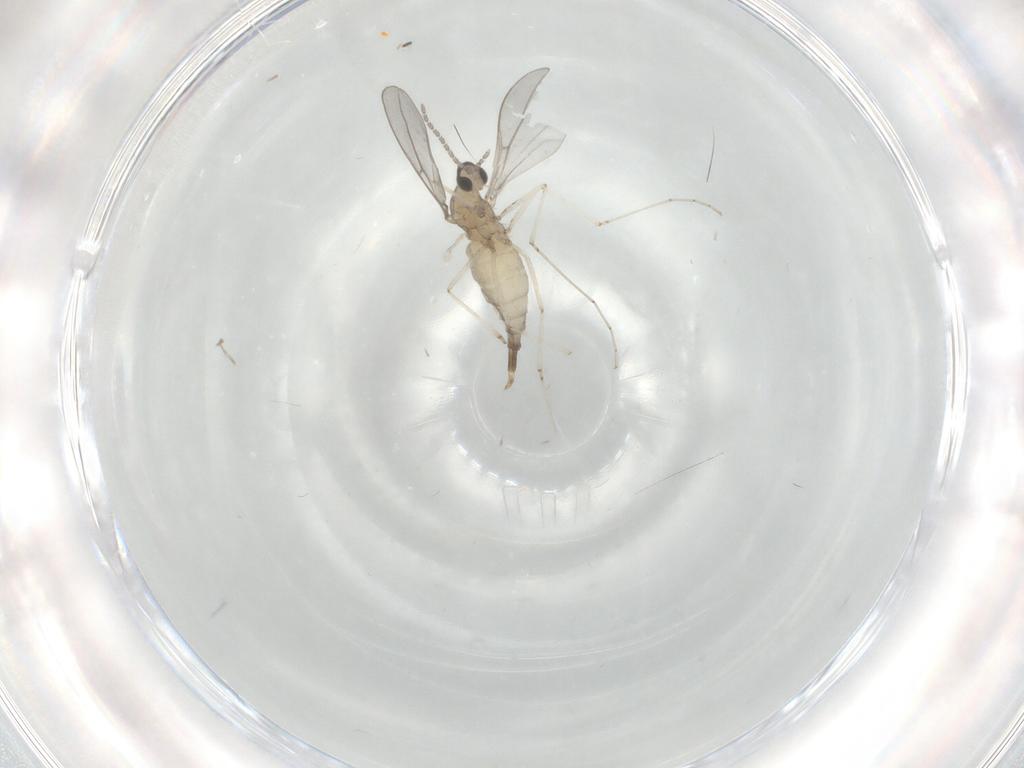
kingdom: Animalia
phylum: Arthropoda
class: Insecta
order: Diptera
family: Cecidomyiidae
